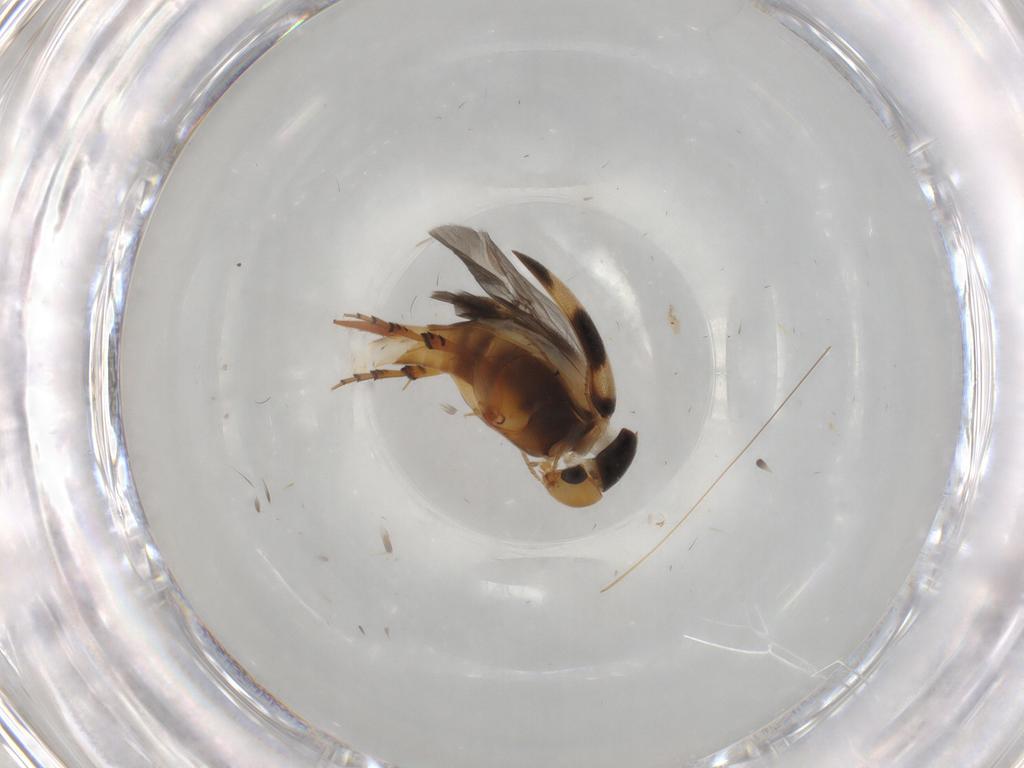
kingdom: Animalia
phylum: Arthropoda
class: Insecta
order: Coleoptera
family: Mordellidae
